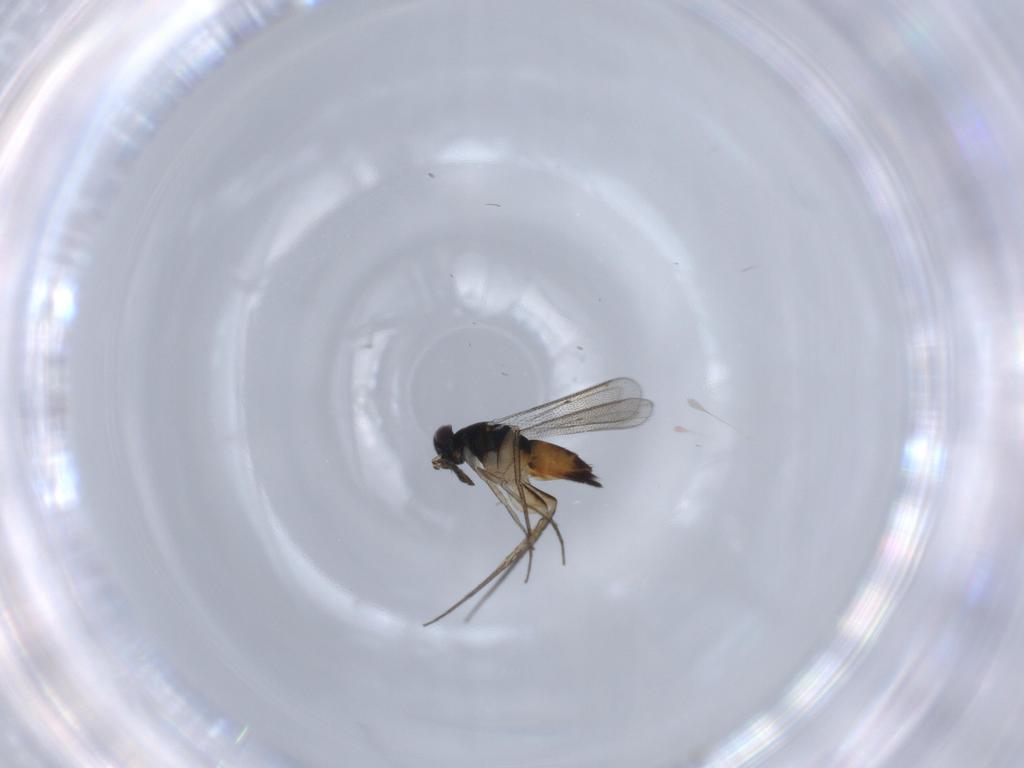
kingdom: Animalia
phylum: Arthropoda
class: Insecta
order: Hymenoptera
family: Eulophidae
